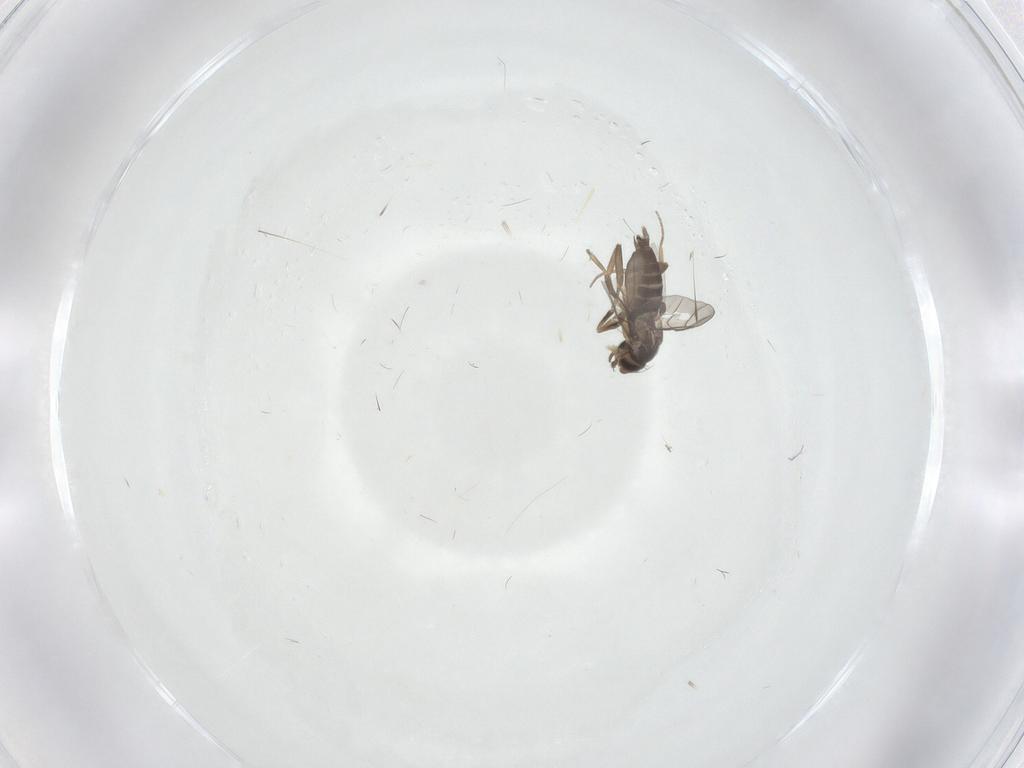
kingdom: Animalia
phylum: Arthropoda
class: Insecta
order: Diptera
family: Phoridae
